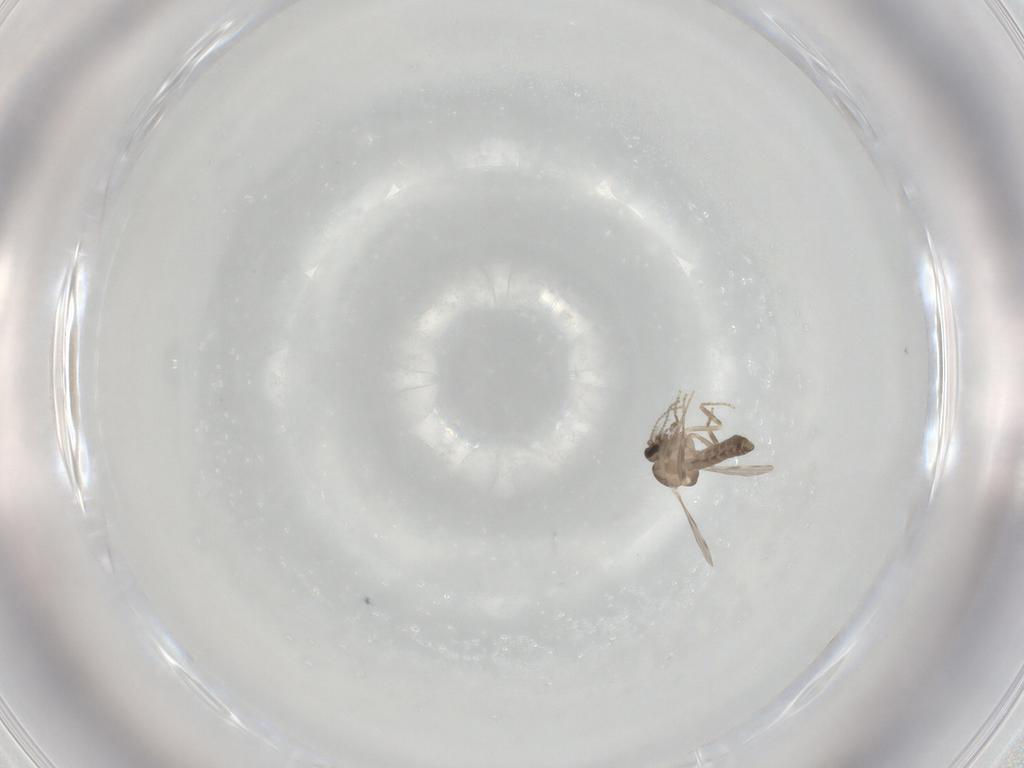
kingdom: Animalia
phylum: Arthropoda
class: Insecta
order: Diptera
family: Ceratopogonidae
